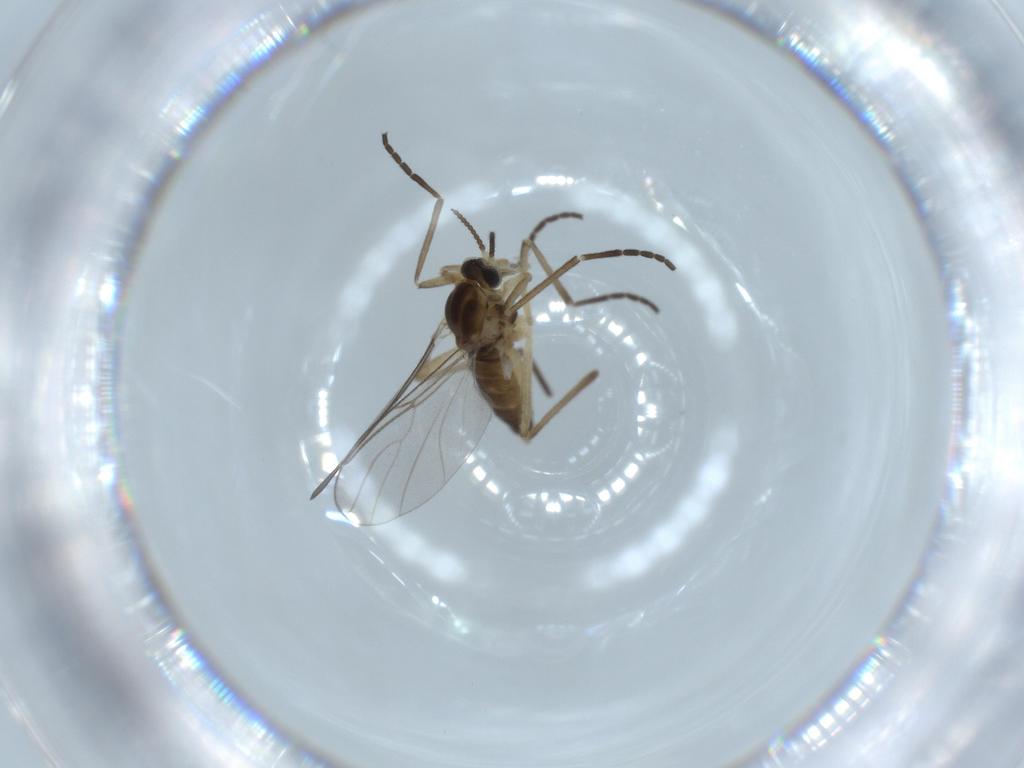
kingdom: Animalia
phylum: Arthropoda
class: Insecta
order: Diptera
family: Cecidomyiidae
